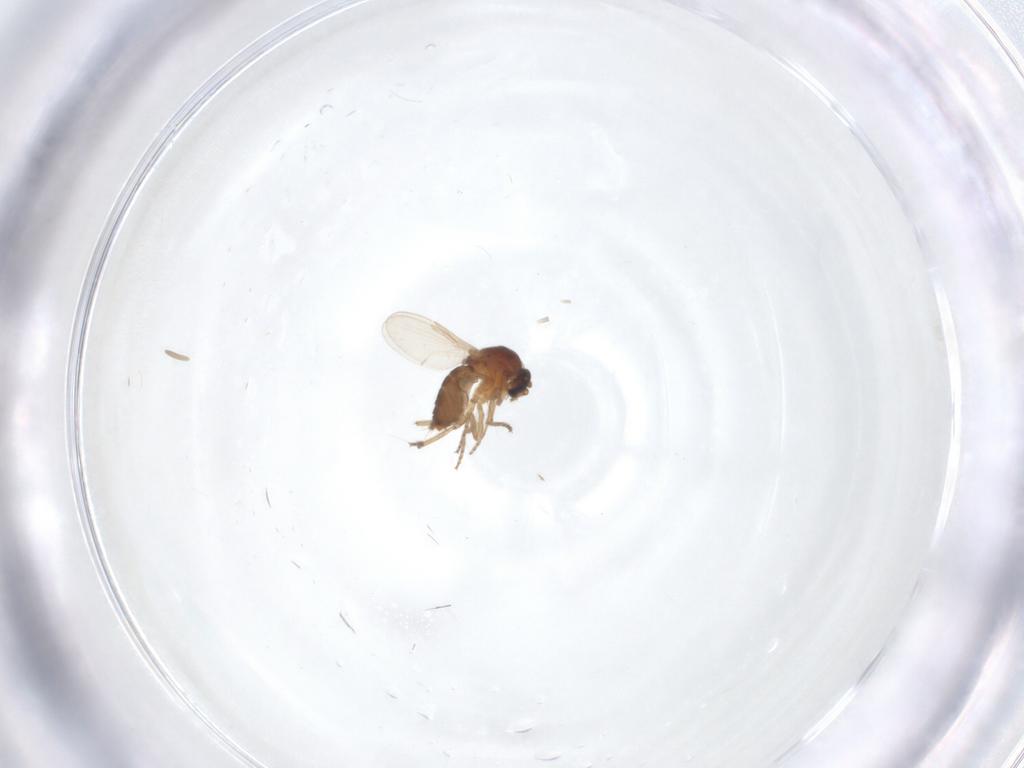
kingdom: Animalia
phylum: Arthropoda
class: Insecta
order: Diptera
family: Ceratopogonidae
